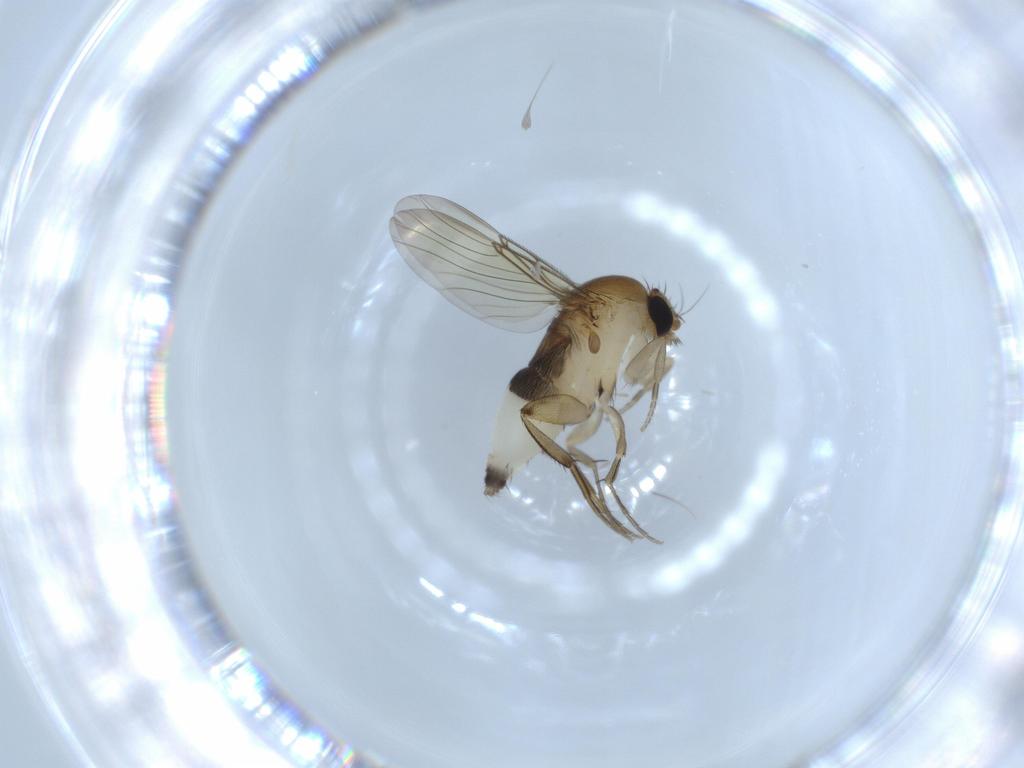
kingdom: Animalia
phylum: Arthropoda
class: Insecta
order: Diptera
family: Phoridae
